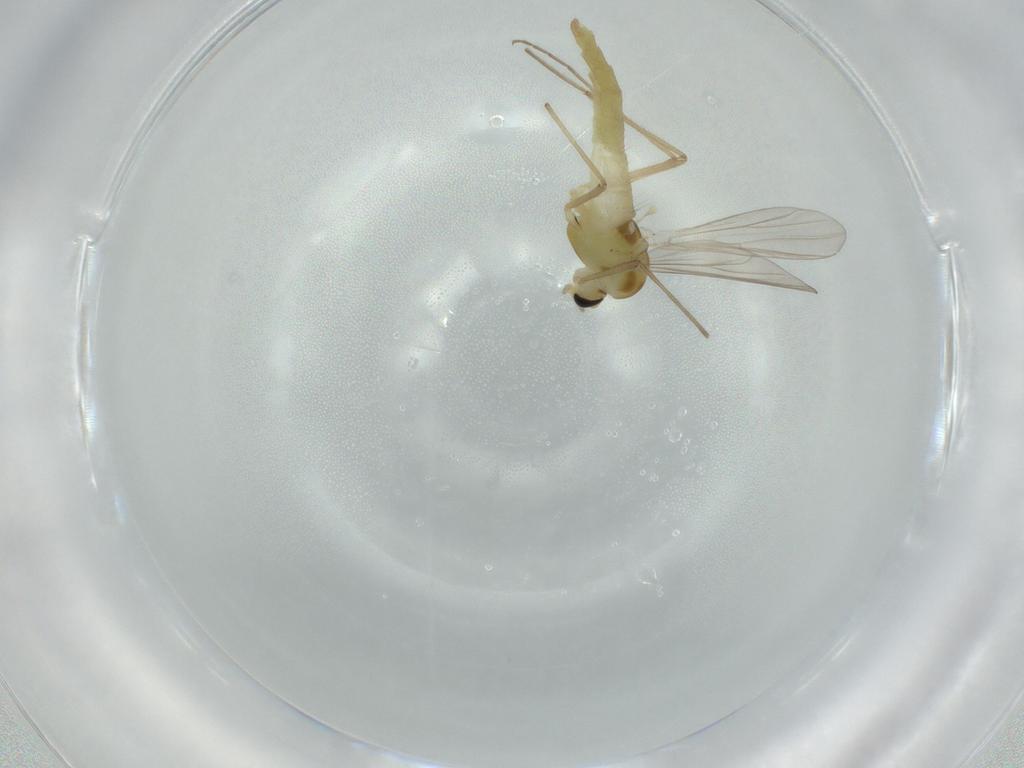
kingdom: Animalia
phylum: Arthropoda
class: Insecta
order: Diptera
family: Chironomidae
